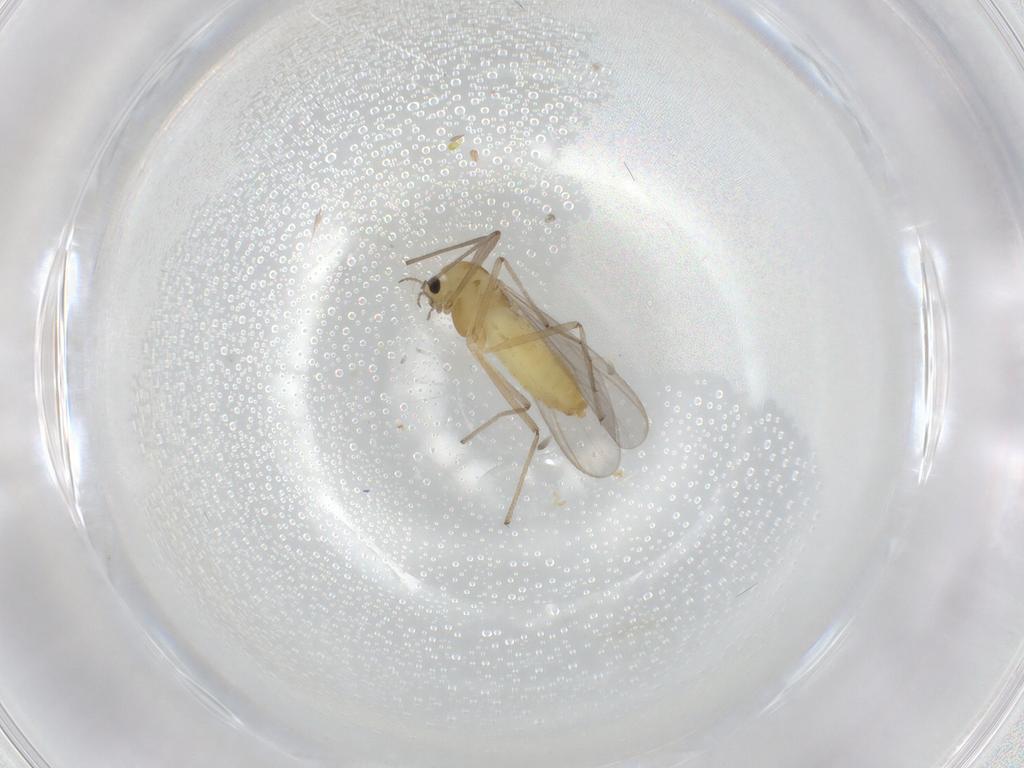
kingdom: Animalia
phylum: Arthropoda
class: Insecta
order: Diptera
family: Chironomidae
